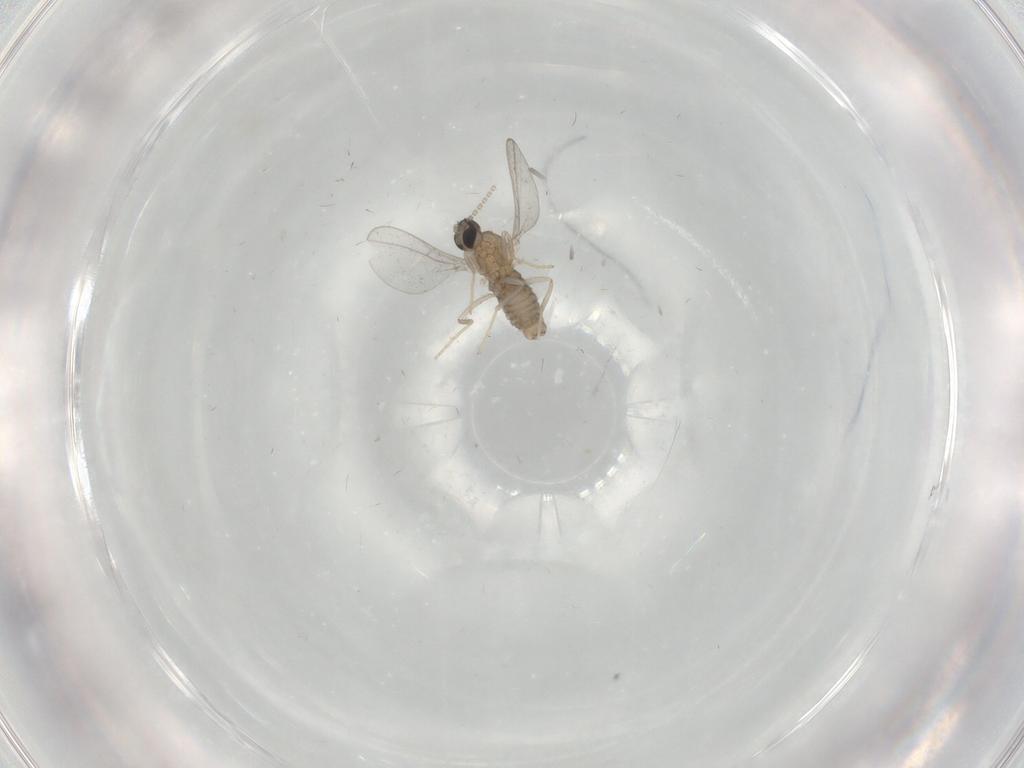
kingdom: Animalia
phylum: Arthropoda
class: Insecta
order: Diptera
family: Cecidomyiidae
